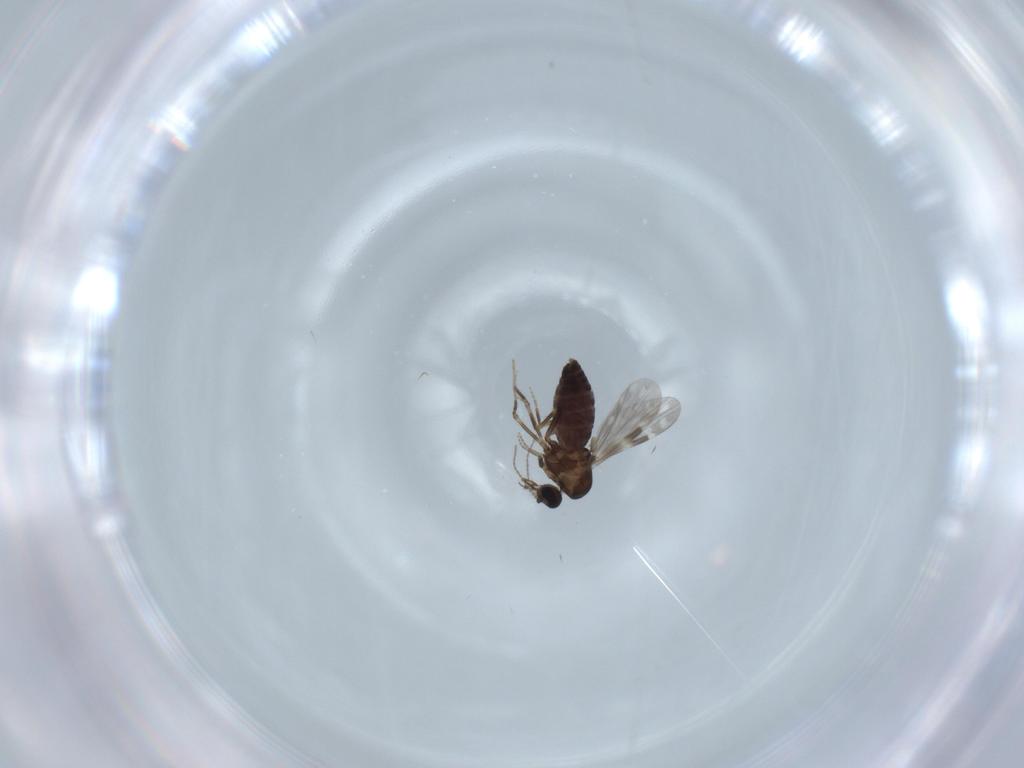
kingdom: Animalia
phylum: Arthropoda
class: Insecta
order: Diptera
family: Ceratopogonidae
